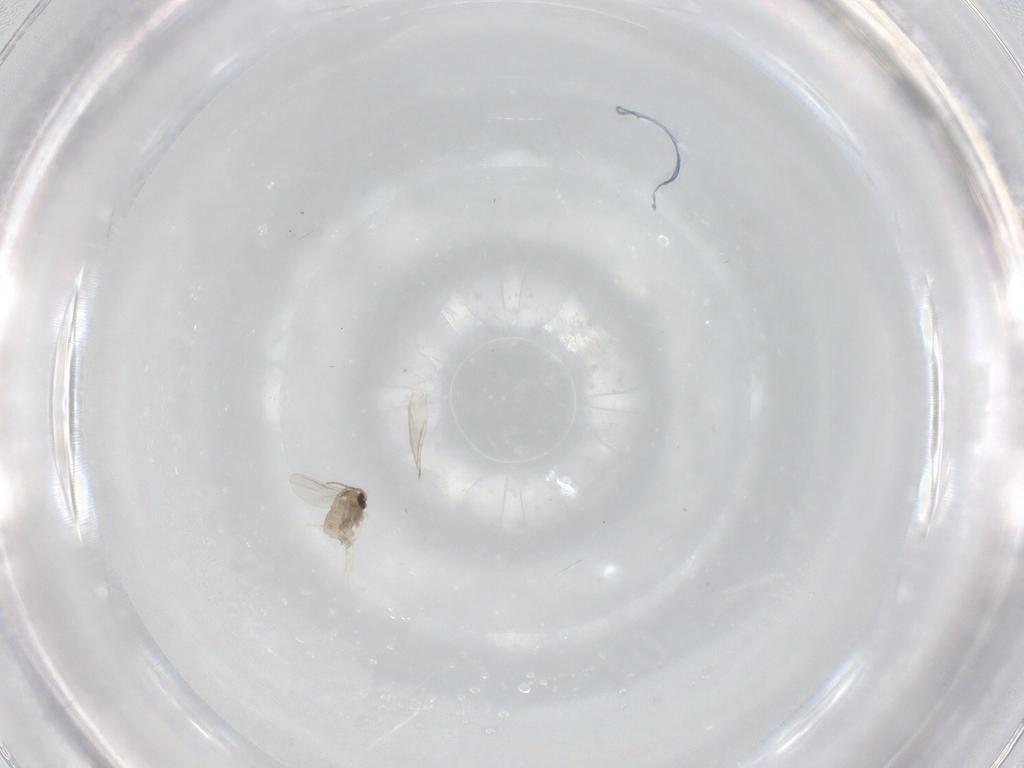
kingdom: Animalia
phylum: Arthropoda
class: Insecta
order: Diptera
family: Cecidomyiidae
